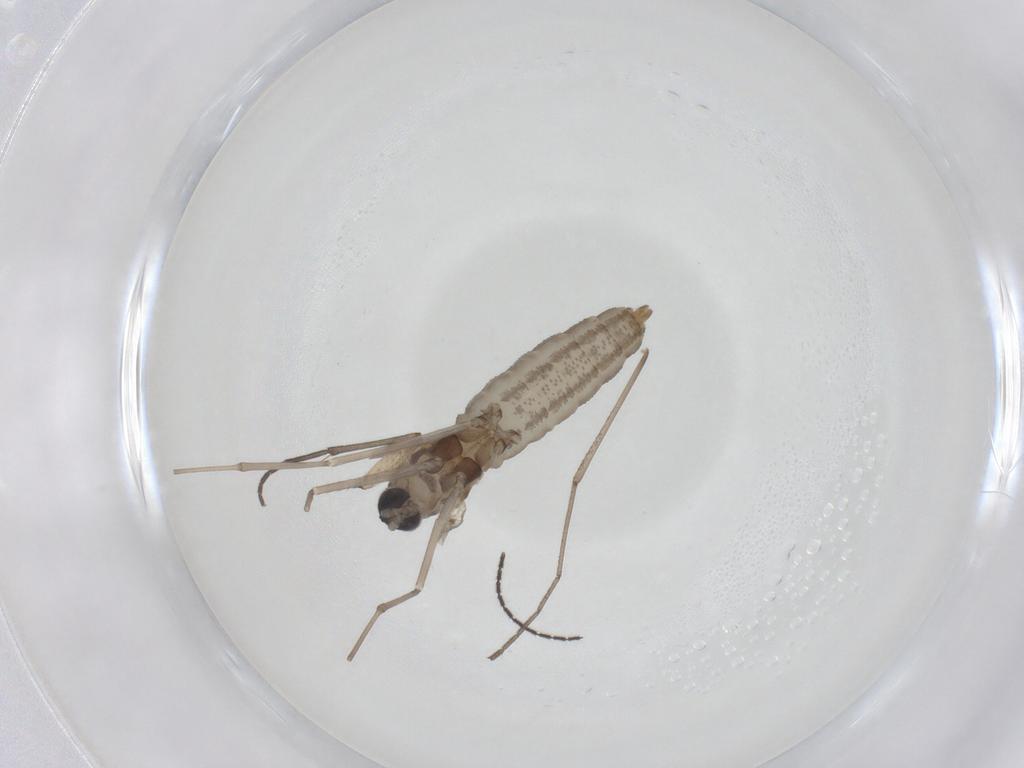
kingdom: Animalia
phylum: Arthropoda
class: Insecta
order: Diptera
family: Sciaridae
